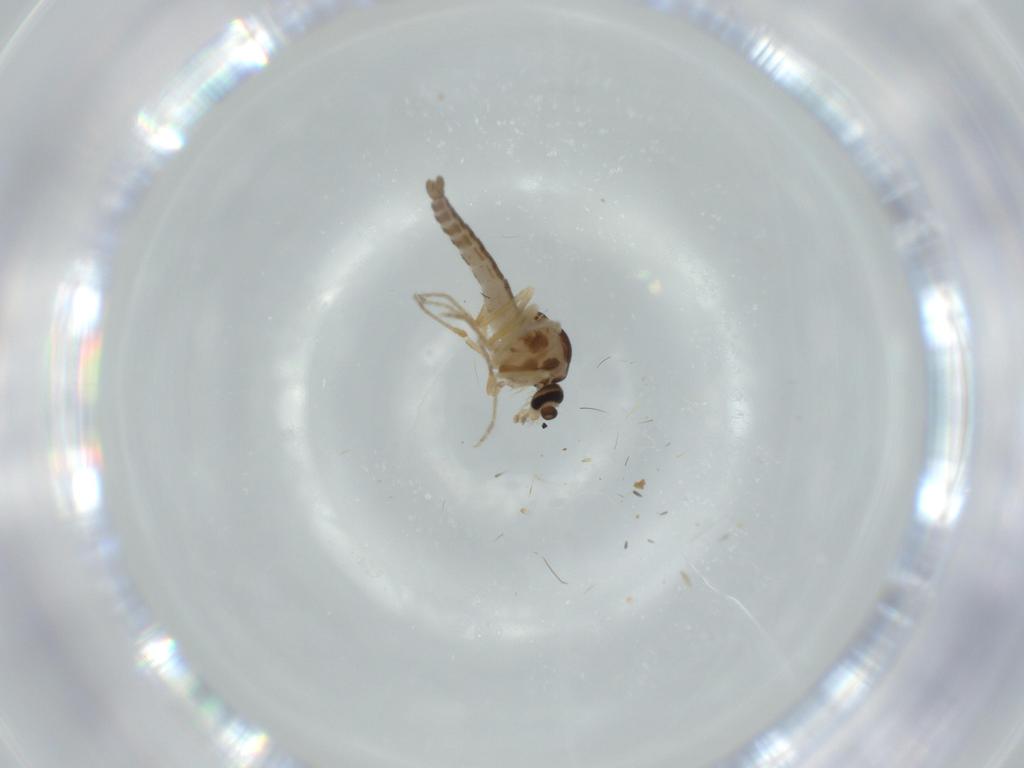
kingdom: Animalia
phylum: Arthropoda
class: Insecta
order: Diptera
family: Ceratopogonidae
